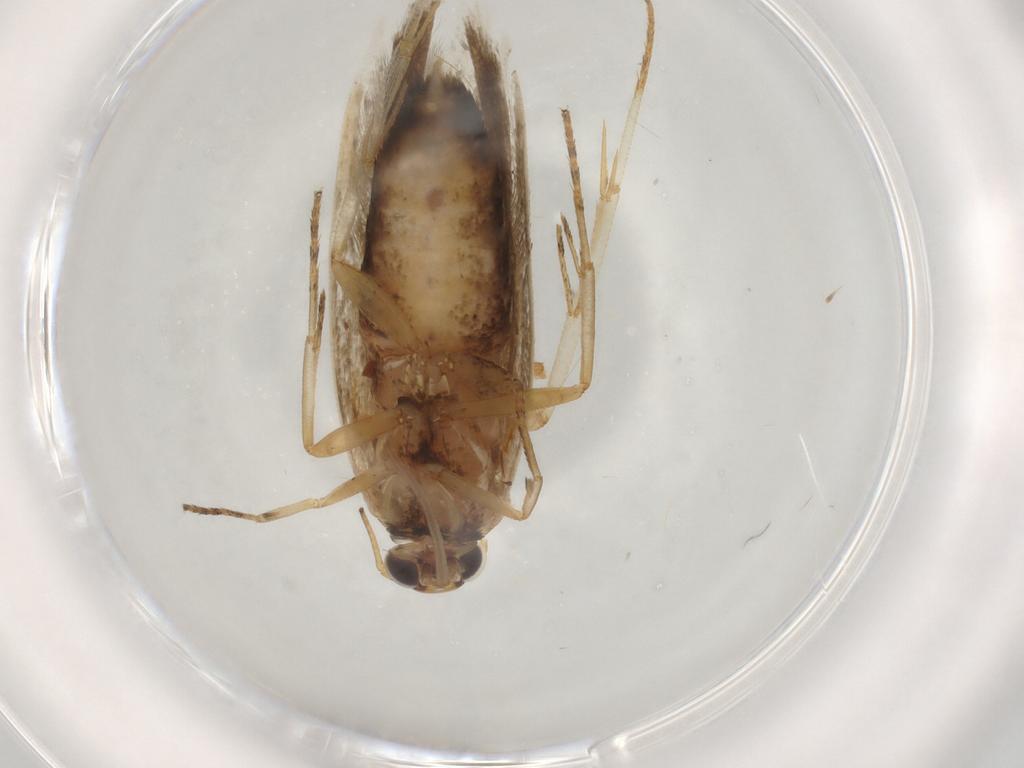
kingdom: Animalia
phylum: Arthropoda
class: Insecta
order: Lepidoptera
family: Gelechiidae
